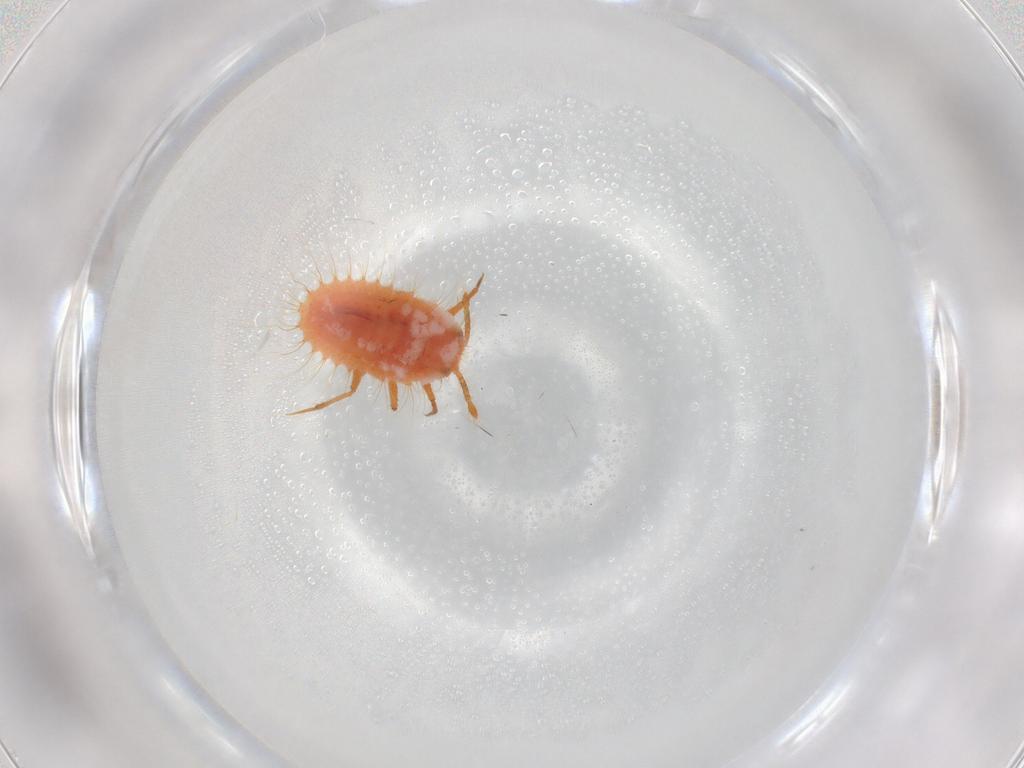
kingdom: Animalia
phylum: Arthropoda
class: Insecta
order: Hemiptera
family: Coccoidea_incertae_sedis
